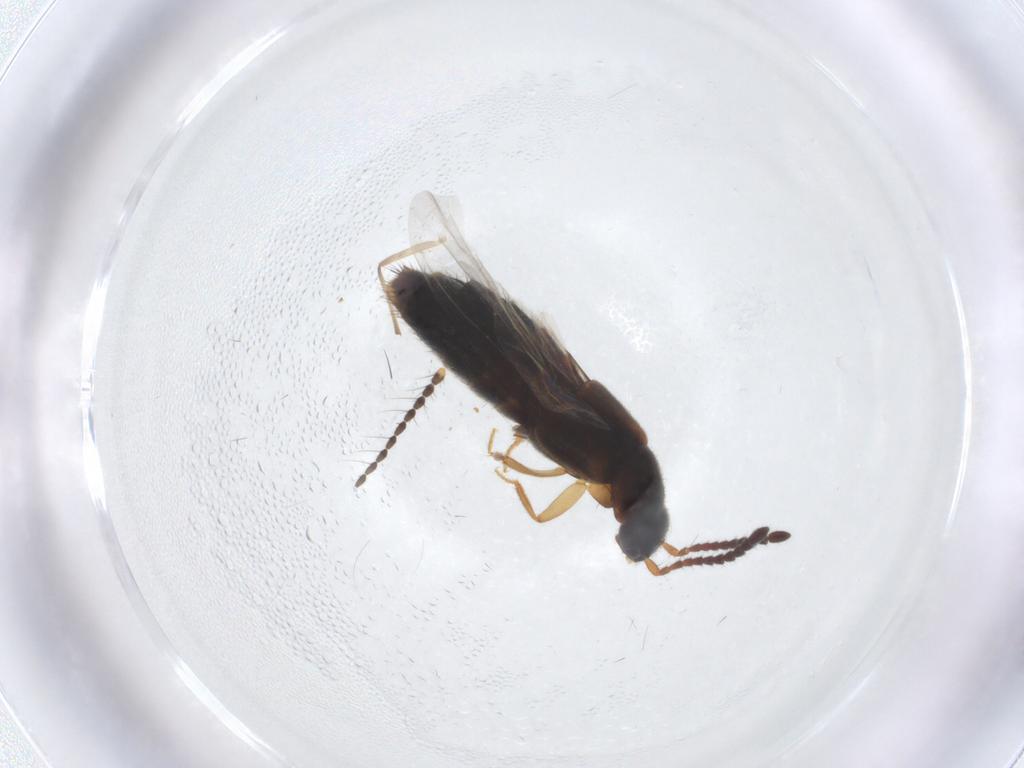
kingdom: Animalia
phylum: Arthropoda
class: Insecta
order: Coleoptera
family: Staphylinidae
